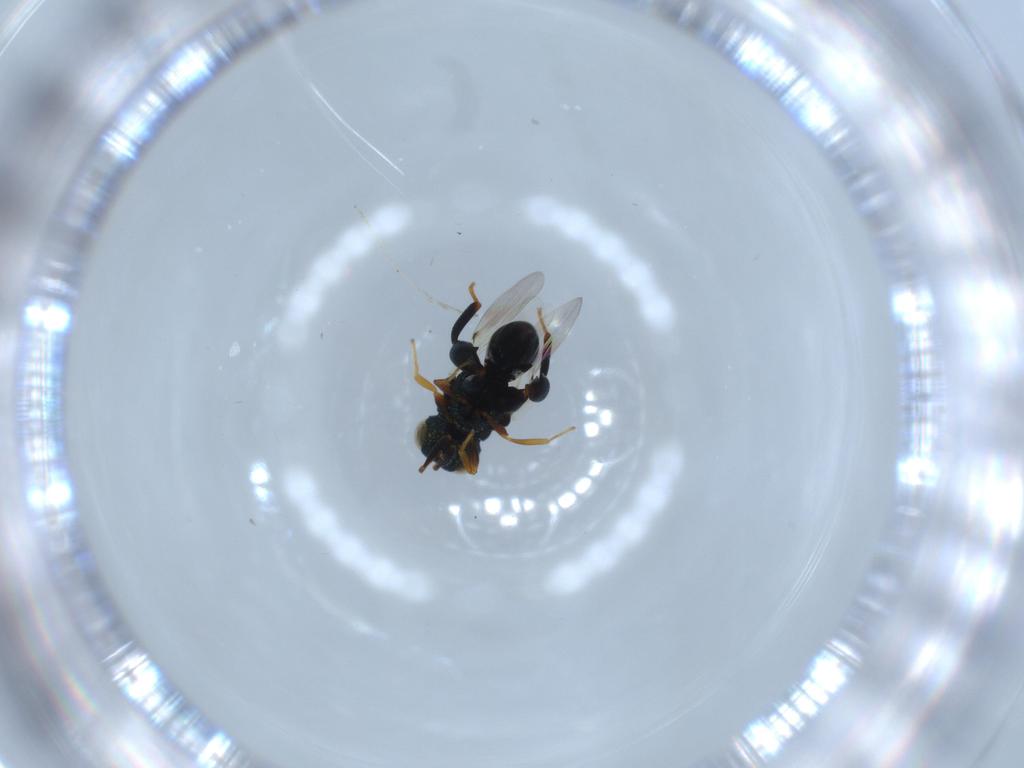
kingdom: Animalia
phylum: Arthropoda
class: Insecta
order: Hymenoptera
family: Chalcididae
